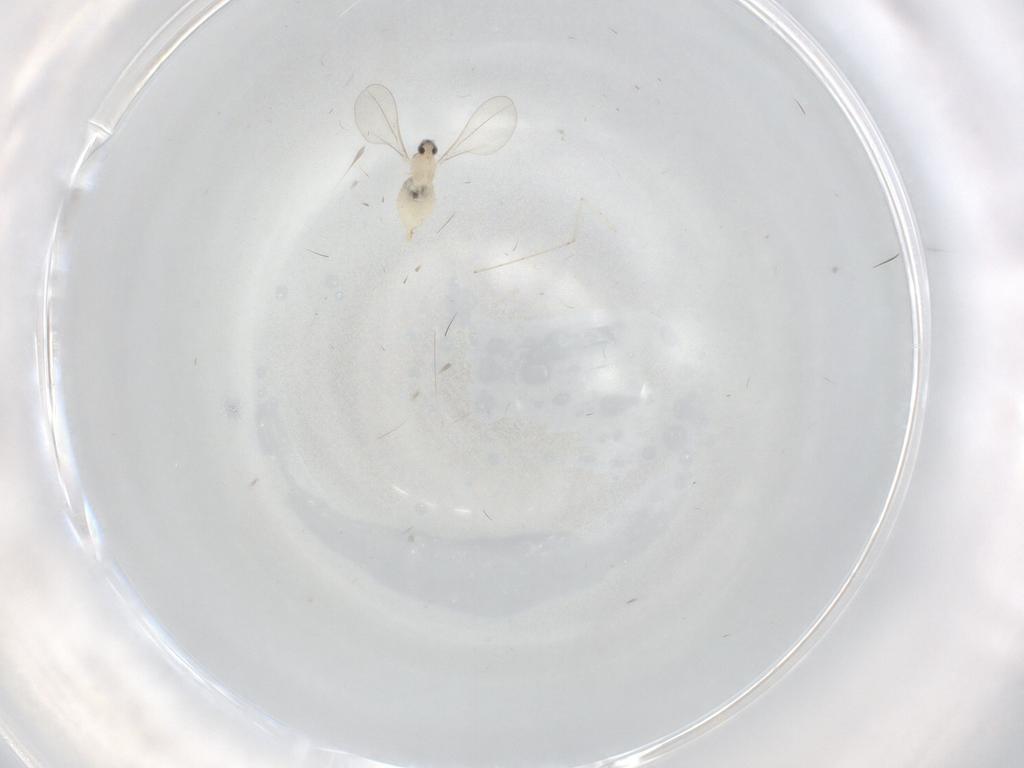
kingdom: Animalia
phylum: Arthropoda
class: Insecta
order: Diptera
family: Cecidomyiidae
